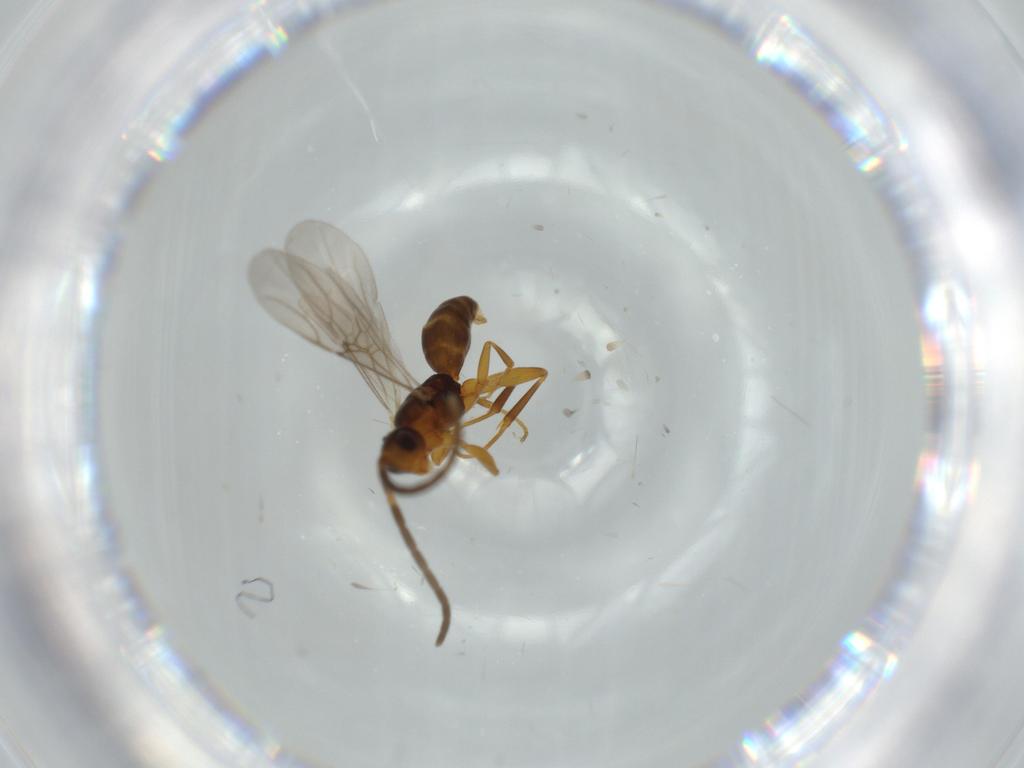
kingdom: Animalia
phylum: Arthropoda
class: Insecta
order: Hymenoptera
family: Embolemidae
